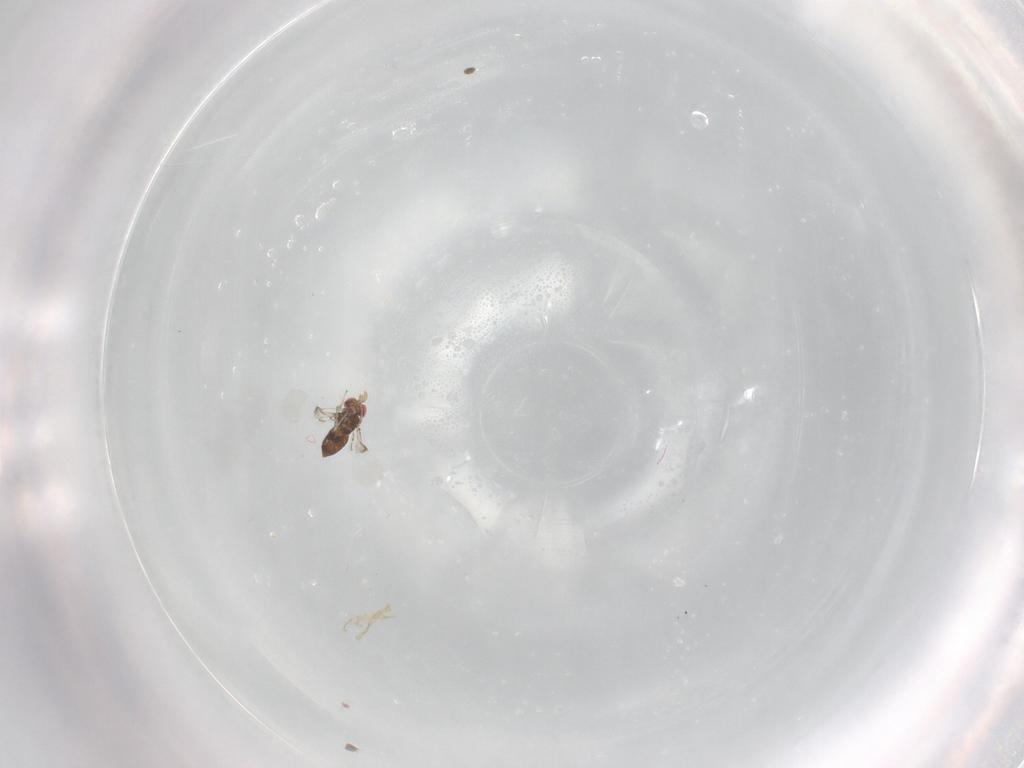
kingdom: Animalia
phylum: Arthropoda
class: Insecta
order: Hymenoptera
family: Trichogrammatidae
